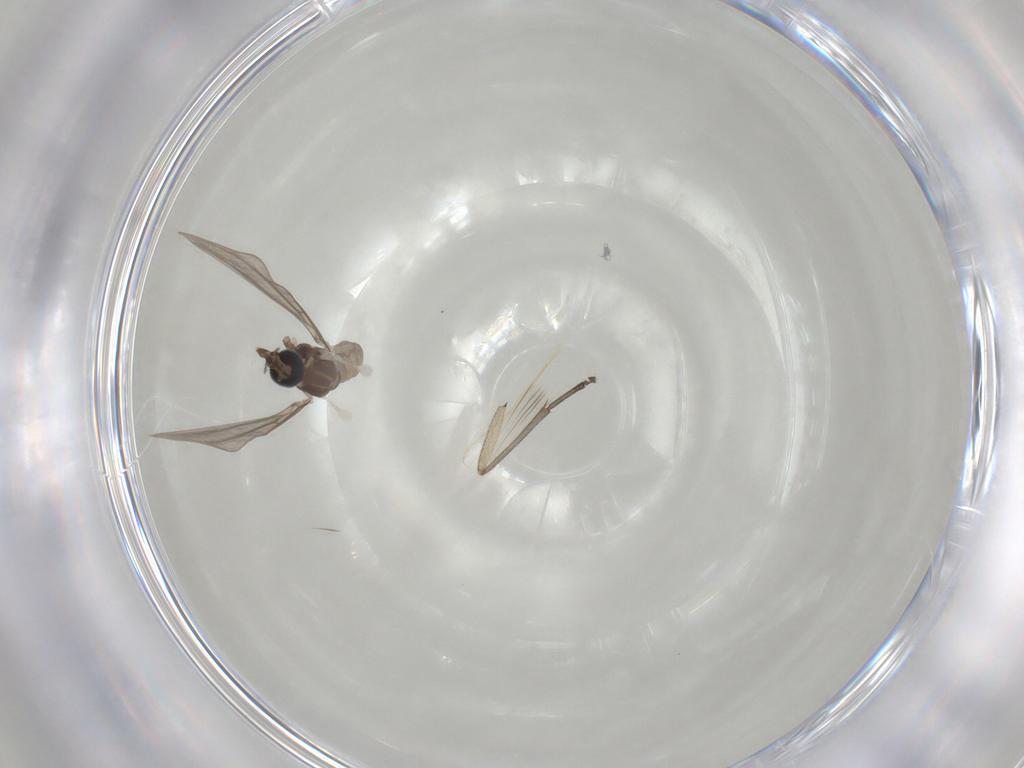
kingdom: Animalia
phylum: Arthropoda
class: Insecta
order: Diptera
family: Cecidomyiidae
